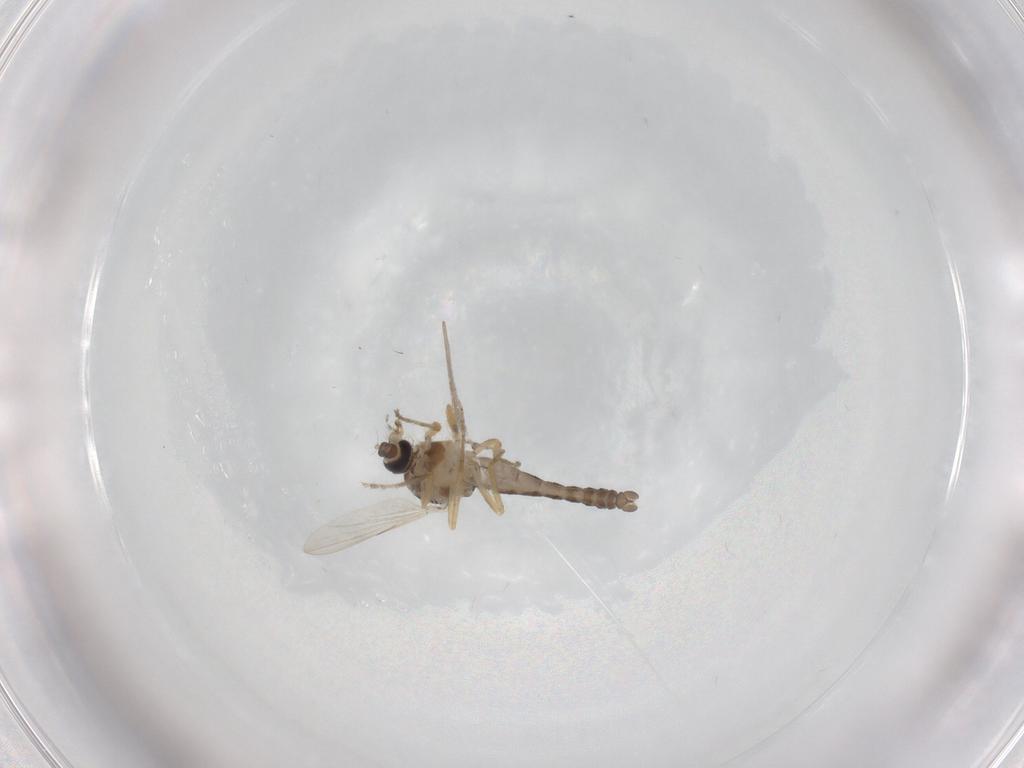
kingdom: Animalia
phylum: Arthropoda
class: Insecta
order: Diptera
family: Ceratopogonidae
